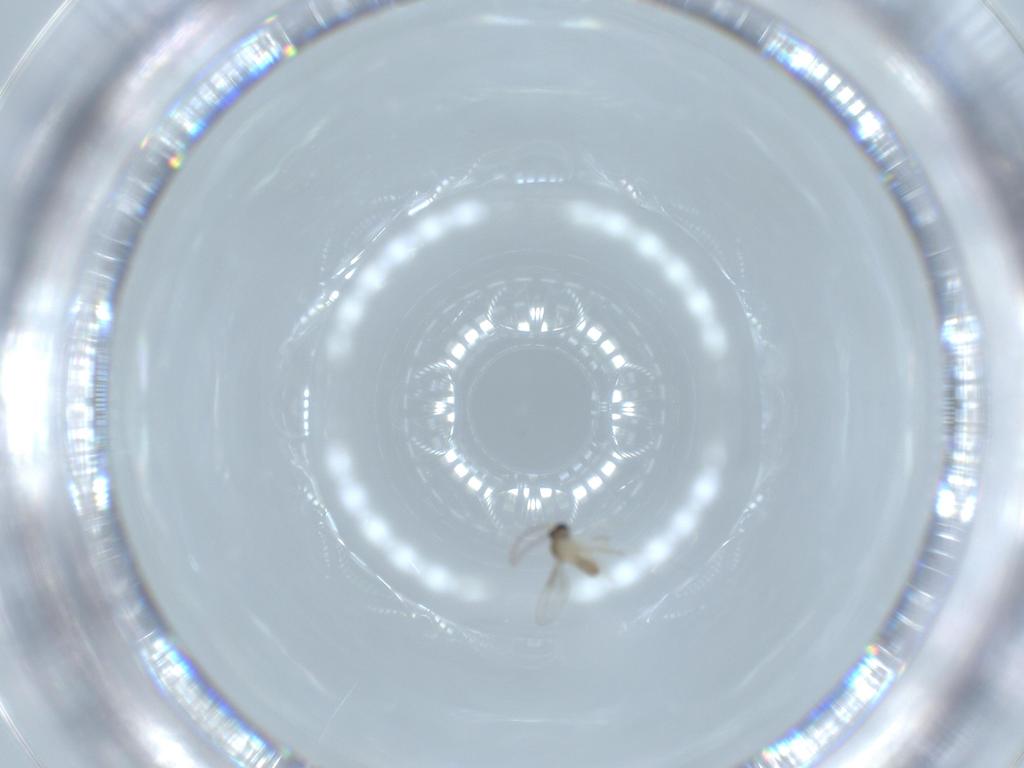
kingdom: Animalia
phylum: Arthropoda
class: Insecta
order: Diptera
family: Cecidomyiidae
